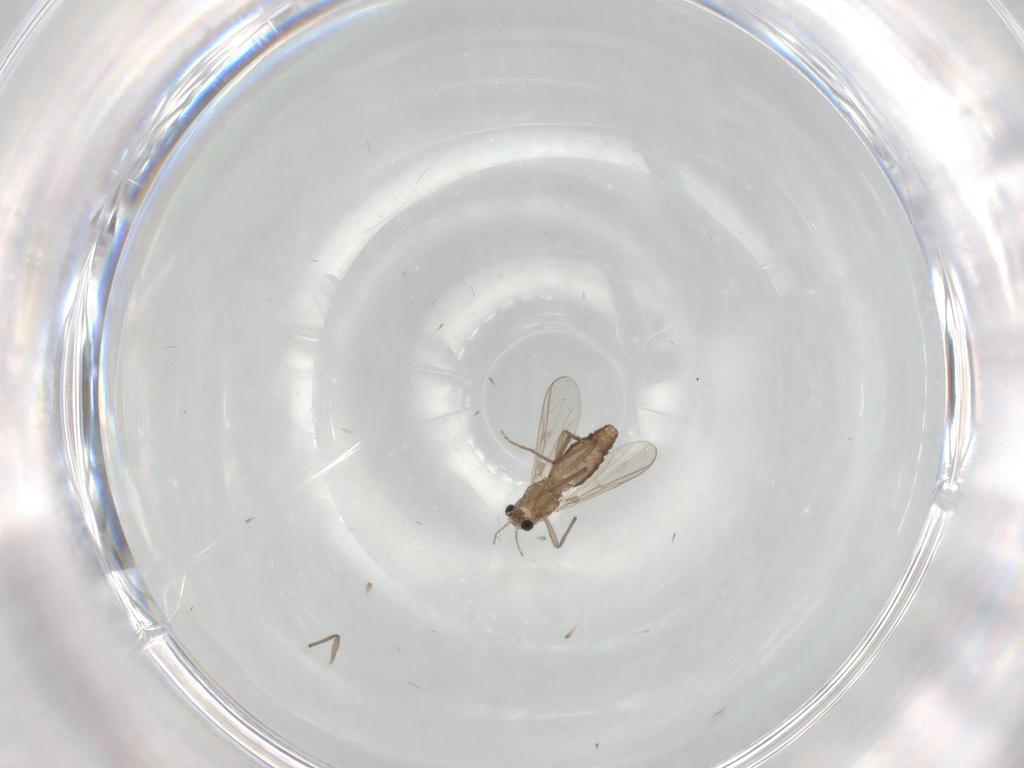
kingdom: Animalia
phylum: Arthropoda
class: Insecta
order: Diptera
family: Chironomidae
